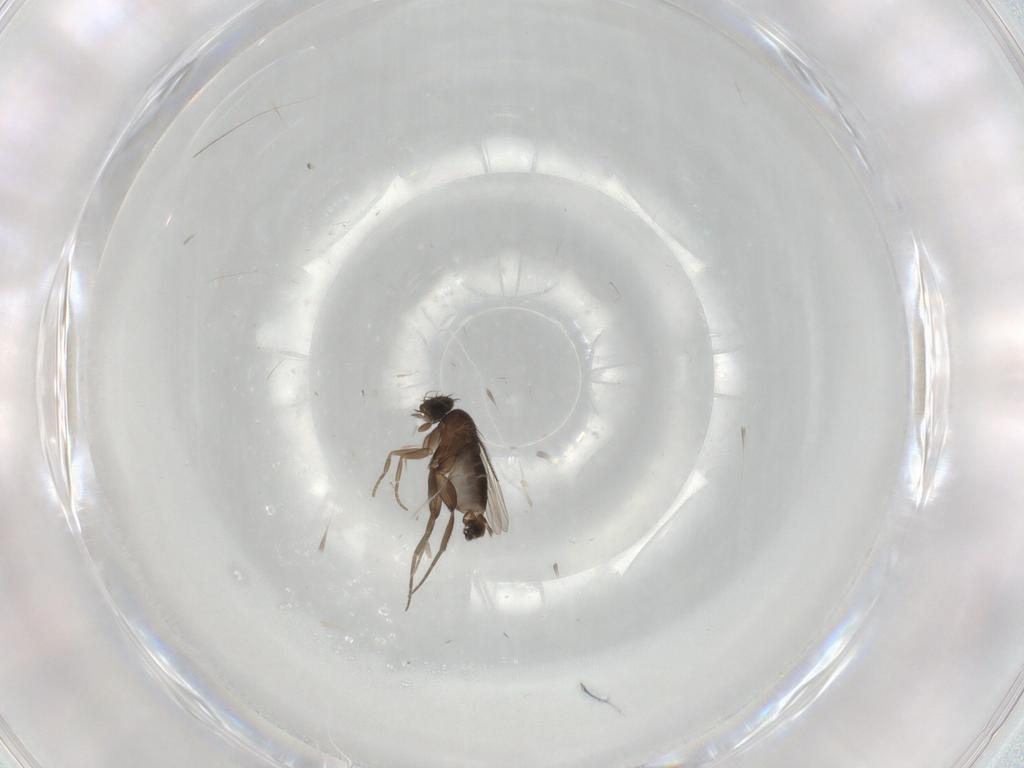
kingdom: Animalia
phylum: Arthropoda
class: Insecta
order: Diptera
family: Phoridae
